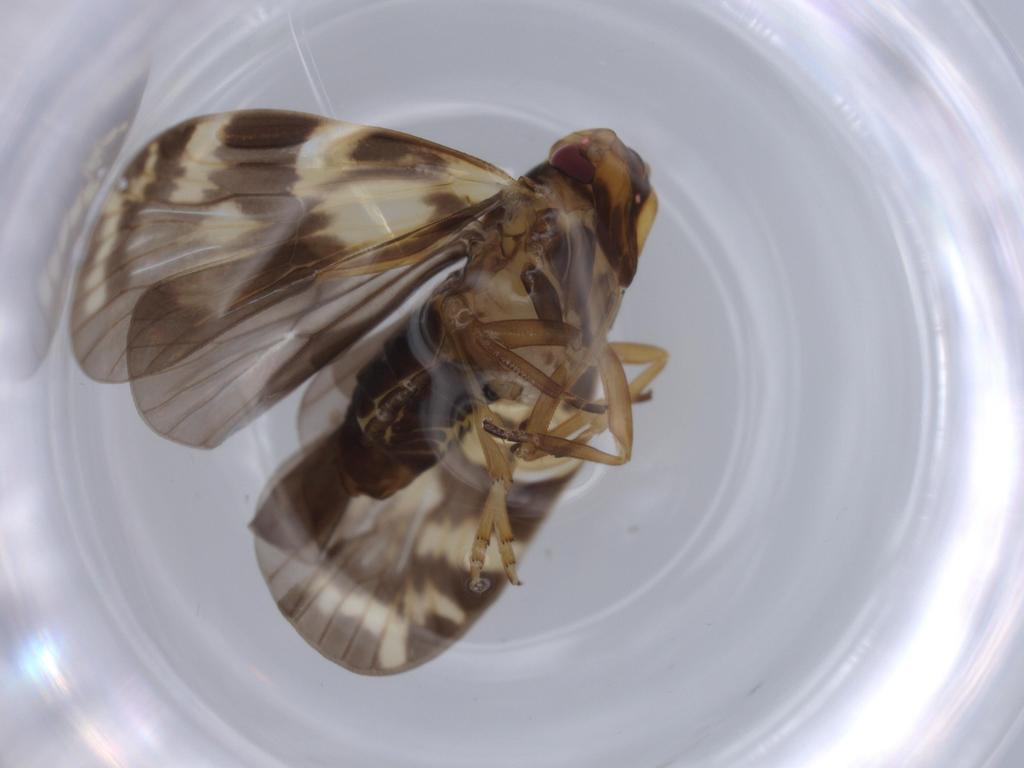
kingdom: Animalia
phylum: Arthropoda
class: Insecta
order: Hemiptera
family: Cixiidae
